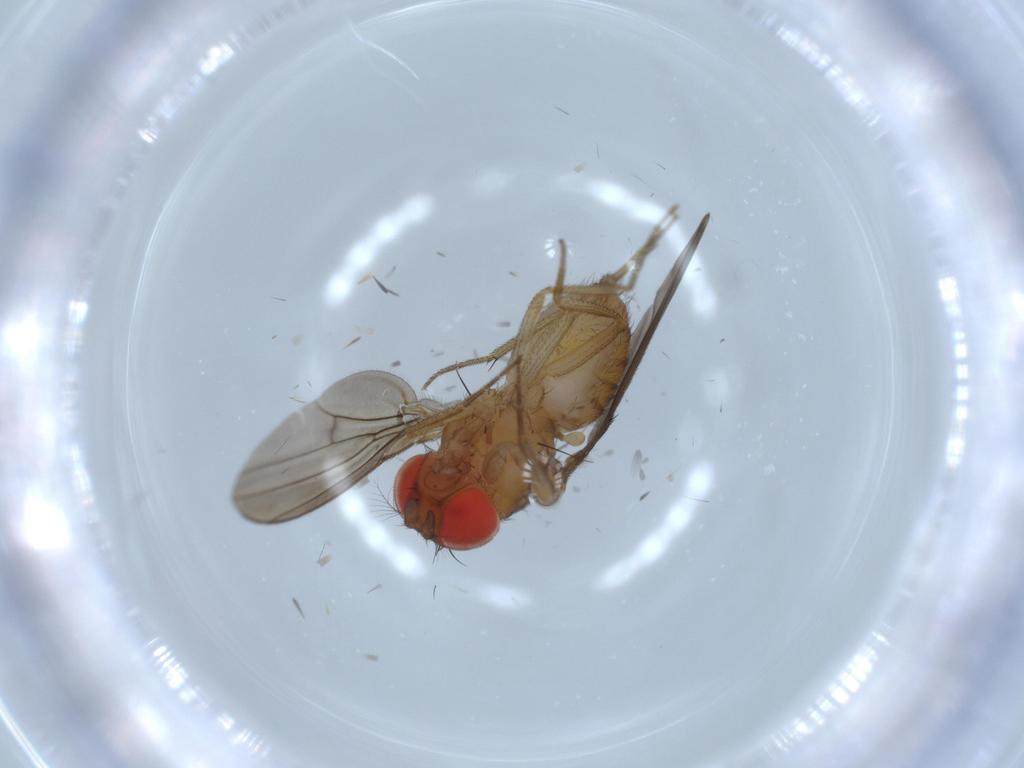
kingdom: Animalia
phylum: Arthropoda
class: Insecta
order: Diptera
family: Drosophilidae
